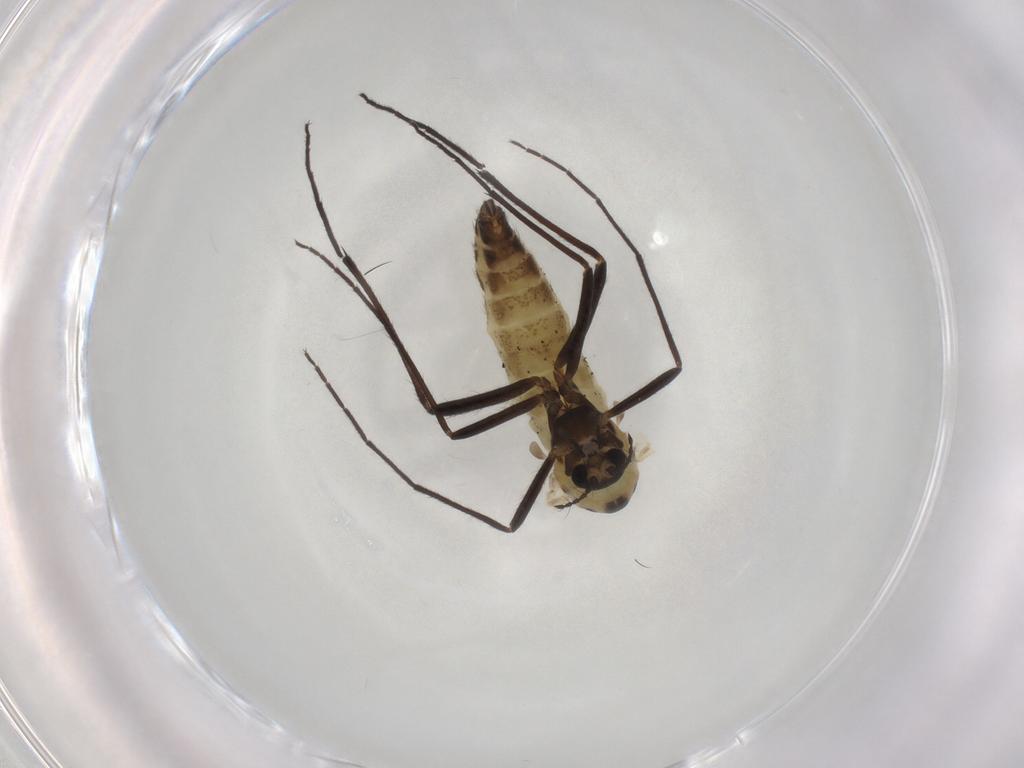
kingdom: Animalia
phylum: Arthropoda
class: Insecta
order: Diptera
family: Chironomidae
